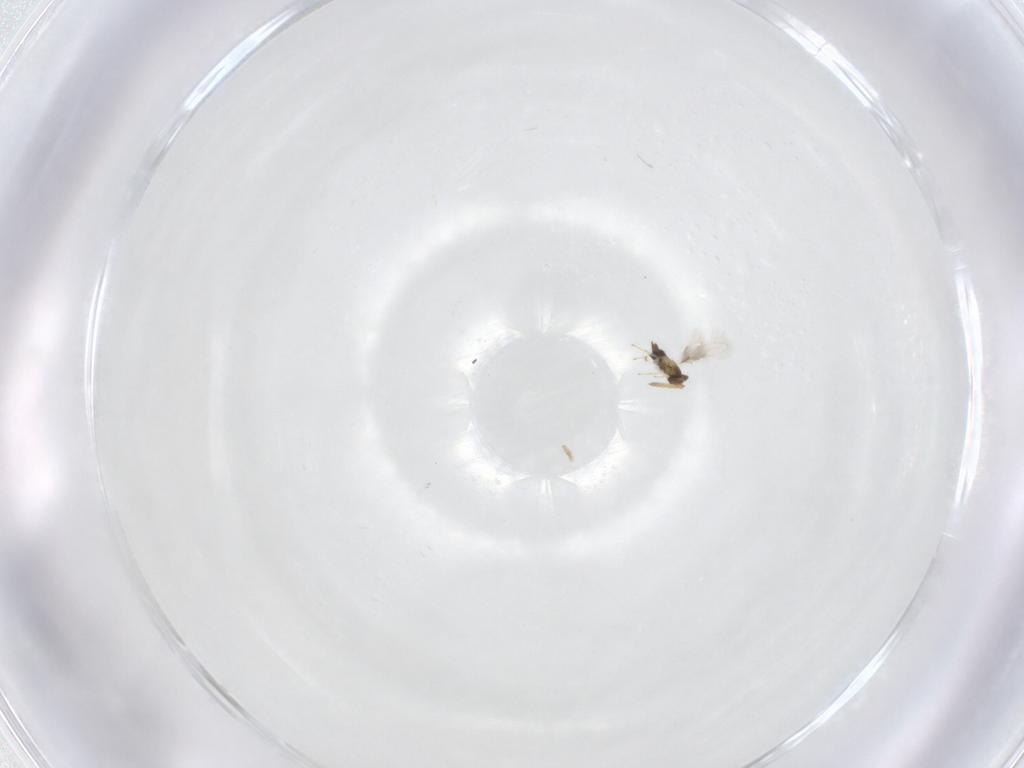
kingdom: Animalia
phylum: Arthropoda
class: Insecta
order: Hymenoptera
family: Aphelinidae
